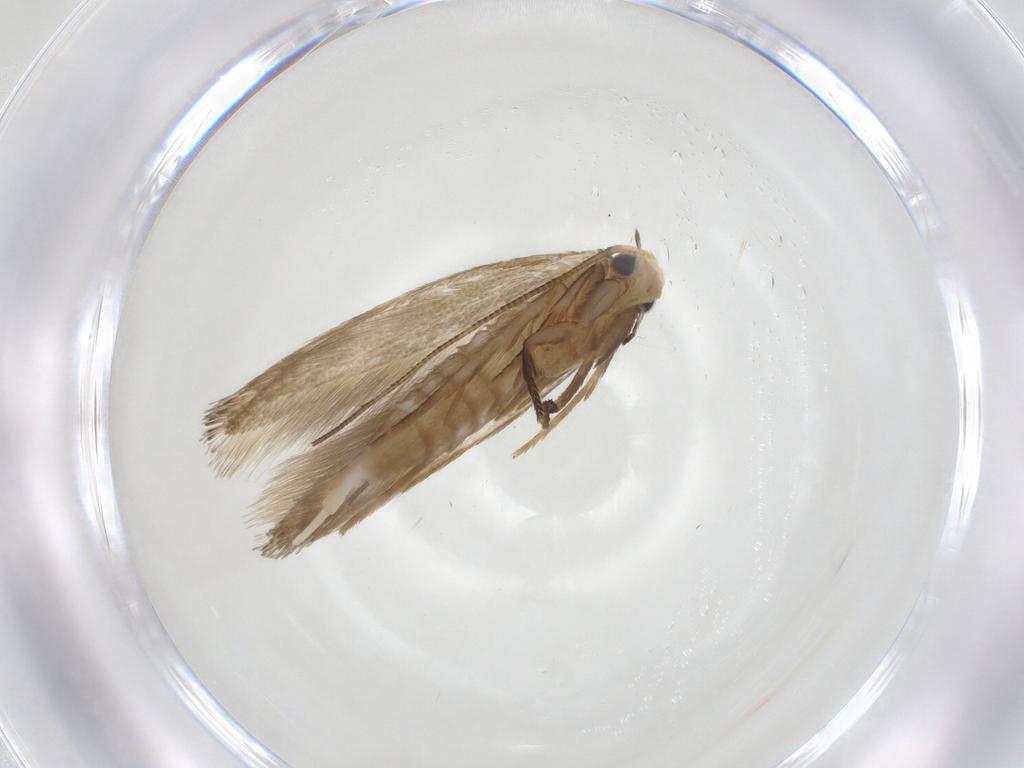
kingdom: Animalia
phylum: Arthropoda
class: Insecta
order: Lepidoptera
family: Tineidae
